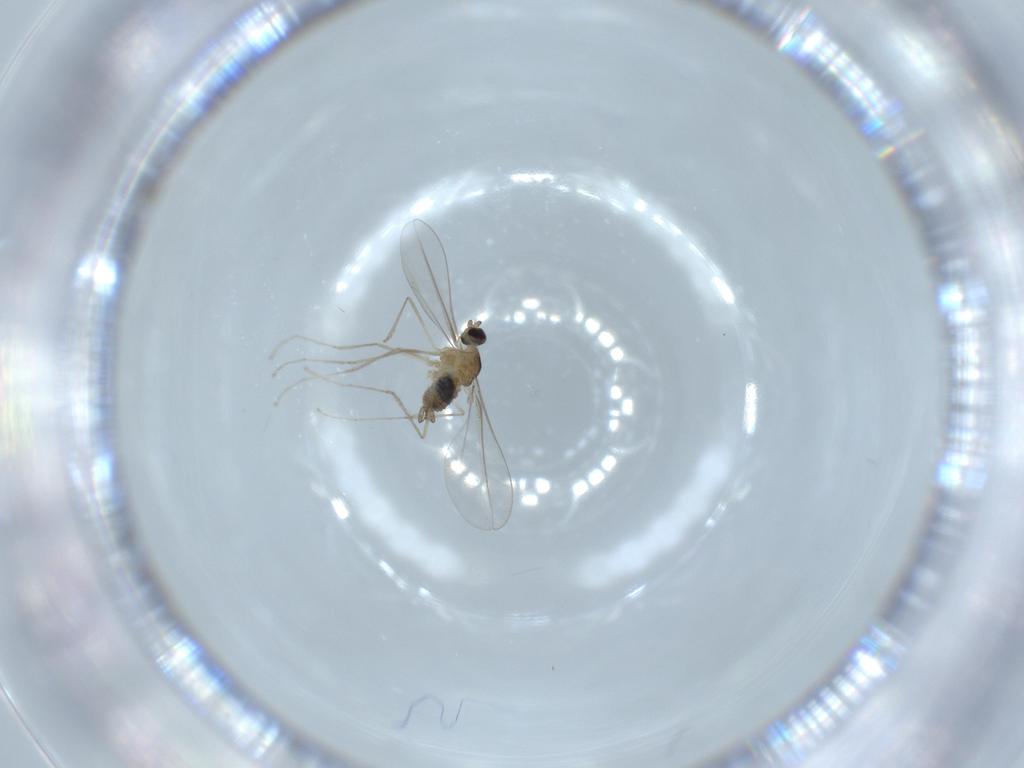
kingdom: Animalia
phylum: Arthropoda
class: Insecta
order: Diptera
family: Cecidomyiidae
